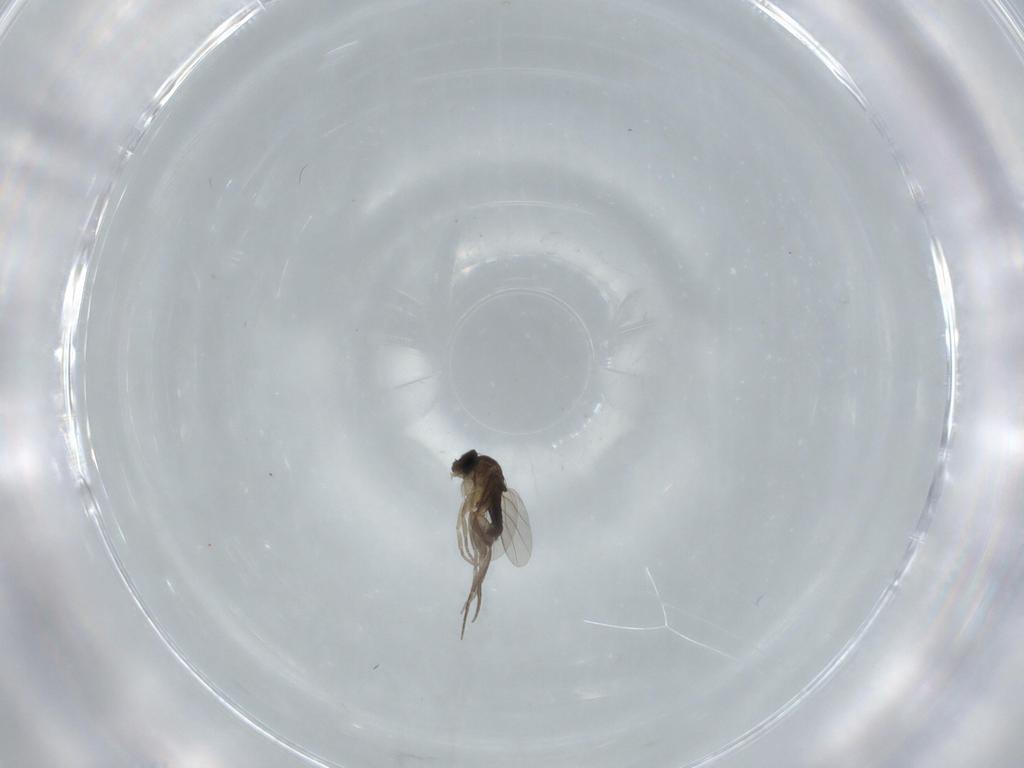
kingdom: Animalia
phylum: Arthropoda
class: Insecta
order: Diptera
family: Phoridae
